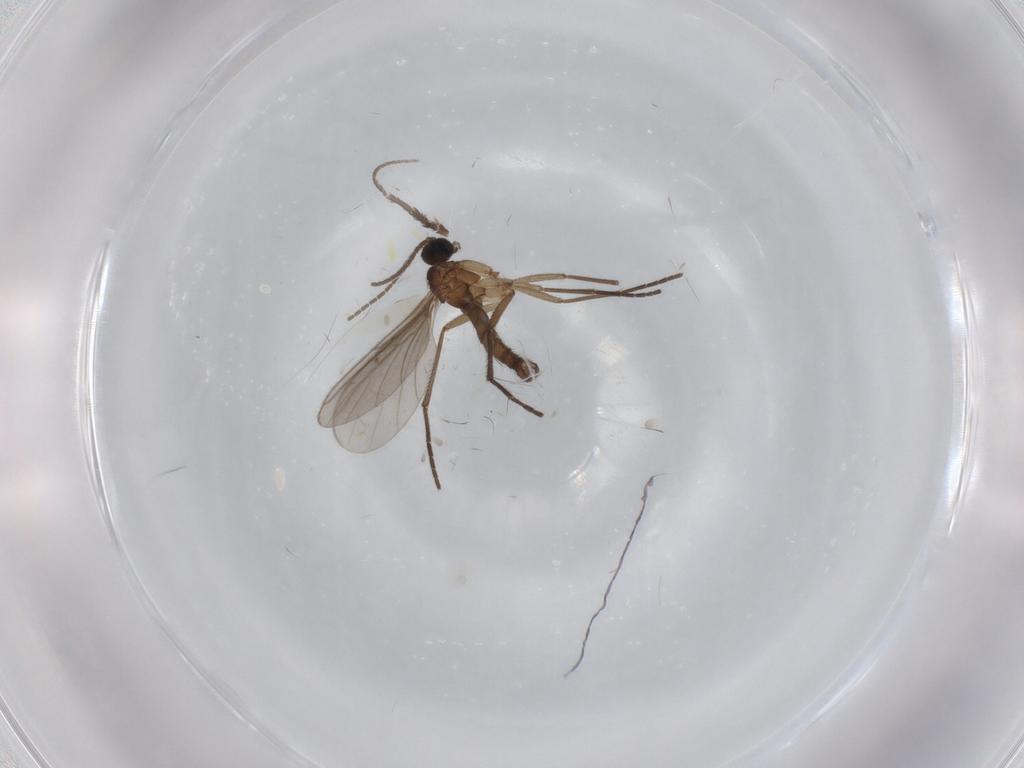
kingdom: Animalia
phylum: Arthropoda
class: Insecta
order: Diptera
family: Sciaridae
